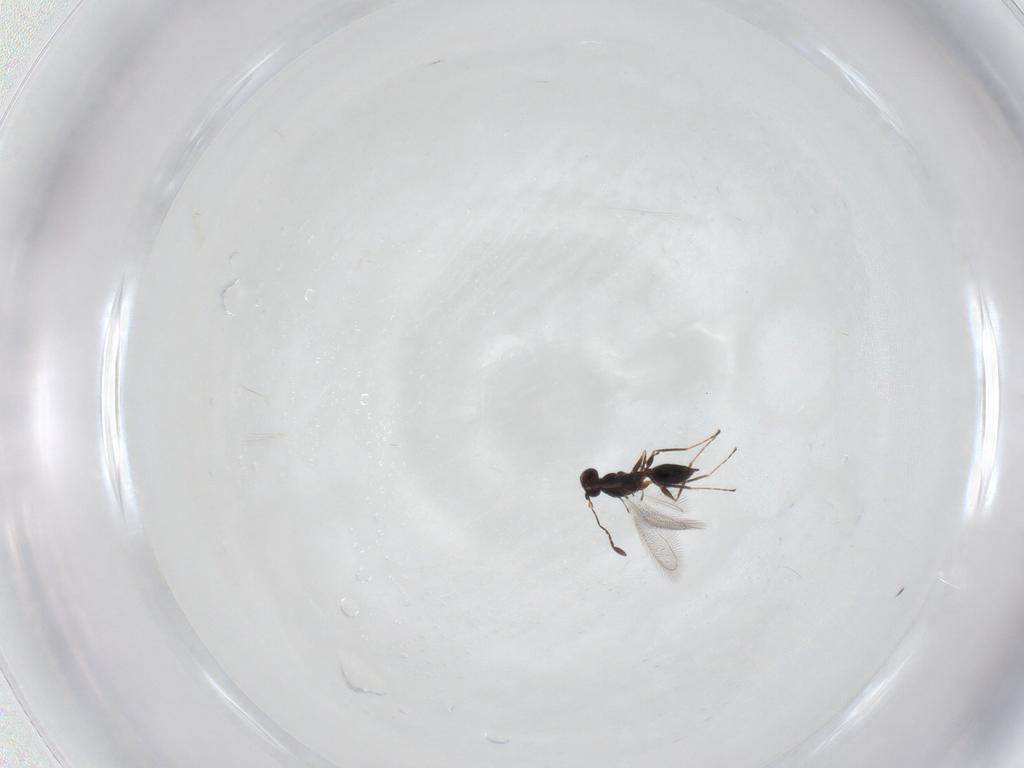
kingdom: Animalia
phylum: Arthropoda
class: Insecta
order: Hymenoptera
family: Mymaridae
